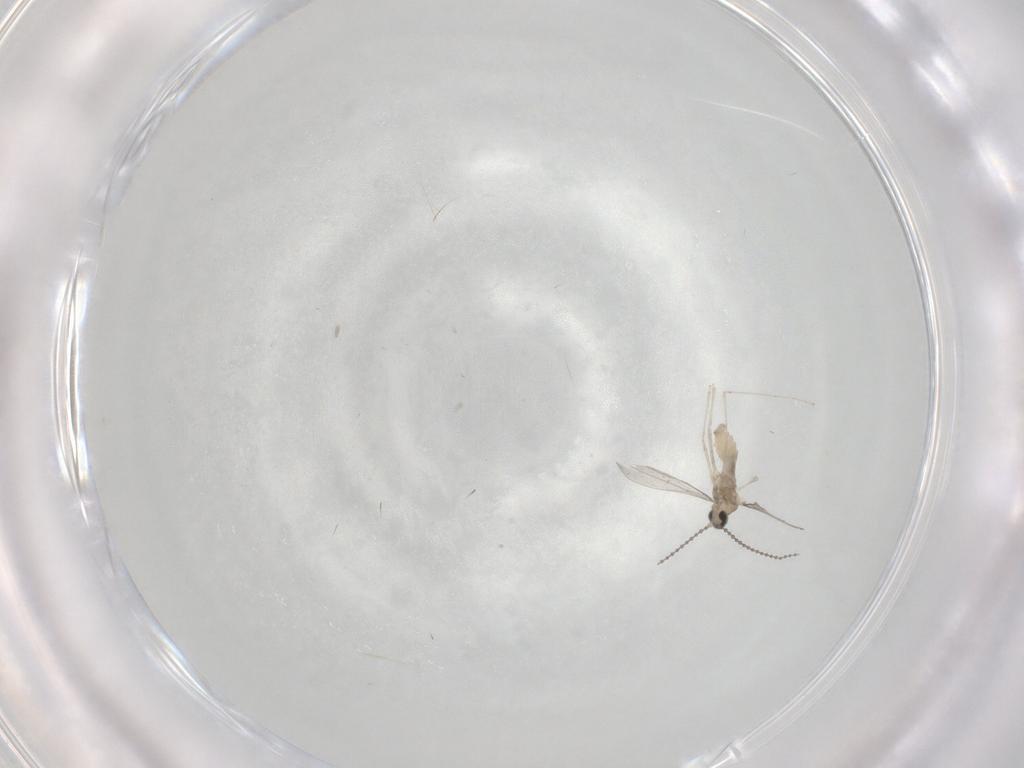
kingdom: Animalia
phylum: Arthropoda
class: Insecta
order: Diptera
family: Cecidomyiidae
